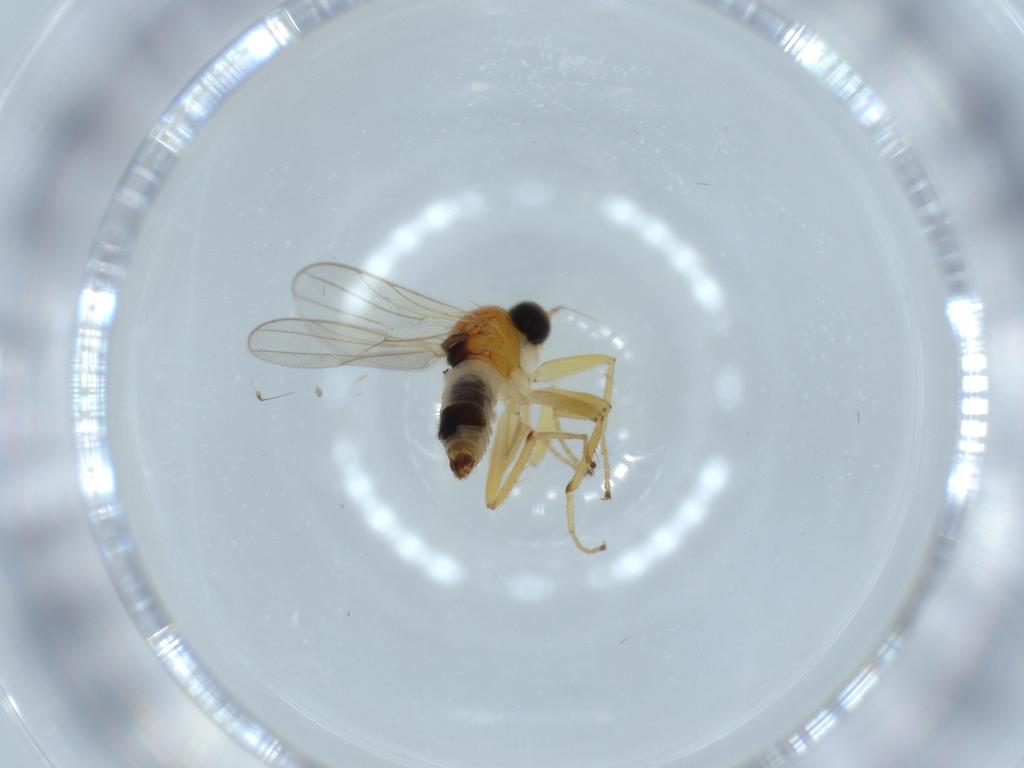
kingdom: Animalia
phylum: Arthropoda
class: Insecta
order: Diptera
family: Hybotidae
